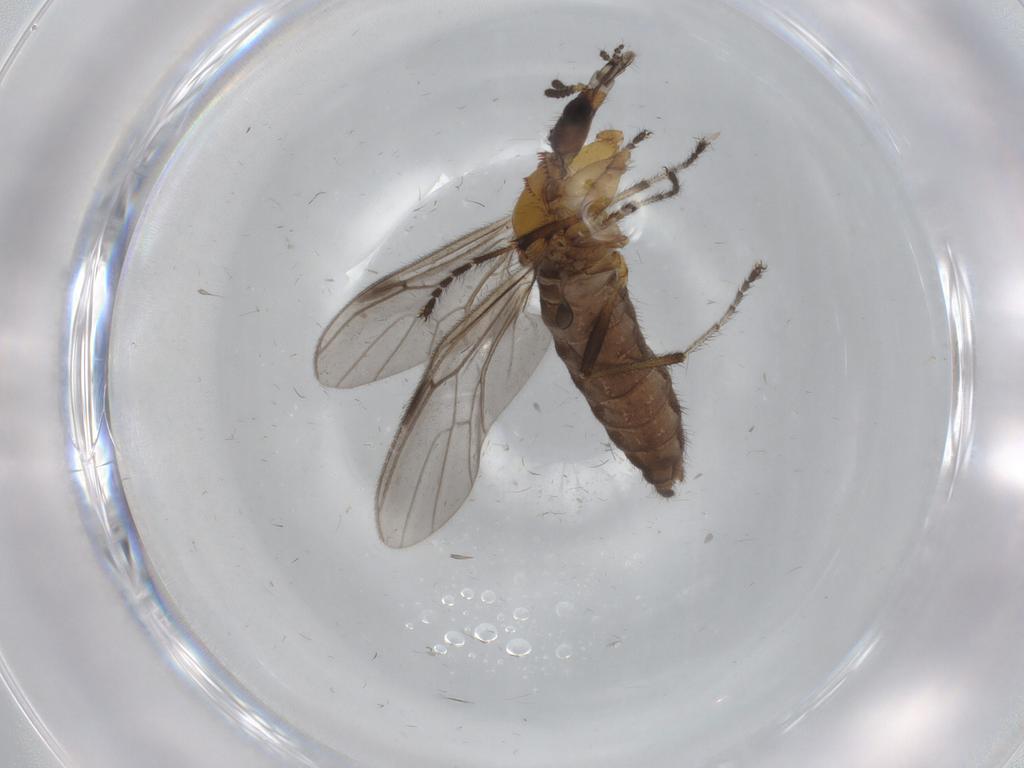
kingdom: Animalia
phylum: Arthropoda
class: Insecta
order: Diptera
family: Bibionidae
